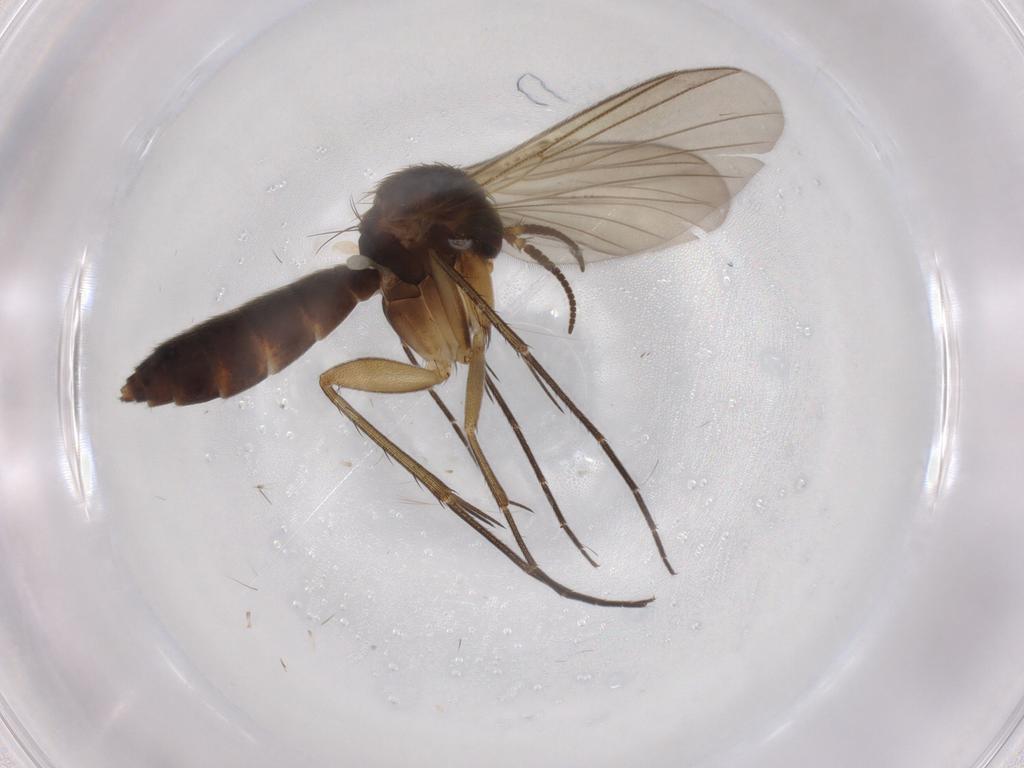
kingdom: Animalia
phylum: Arthropoda
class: Insecta
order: Diptera
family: Mycetophilidae
